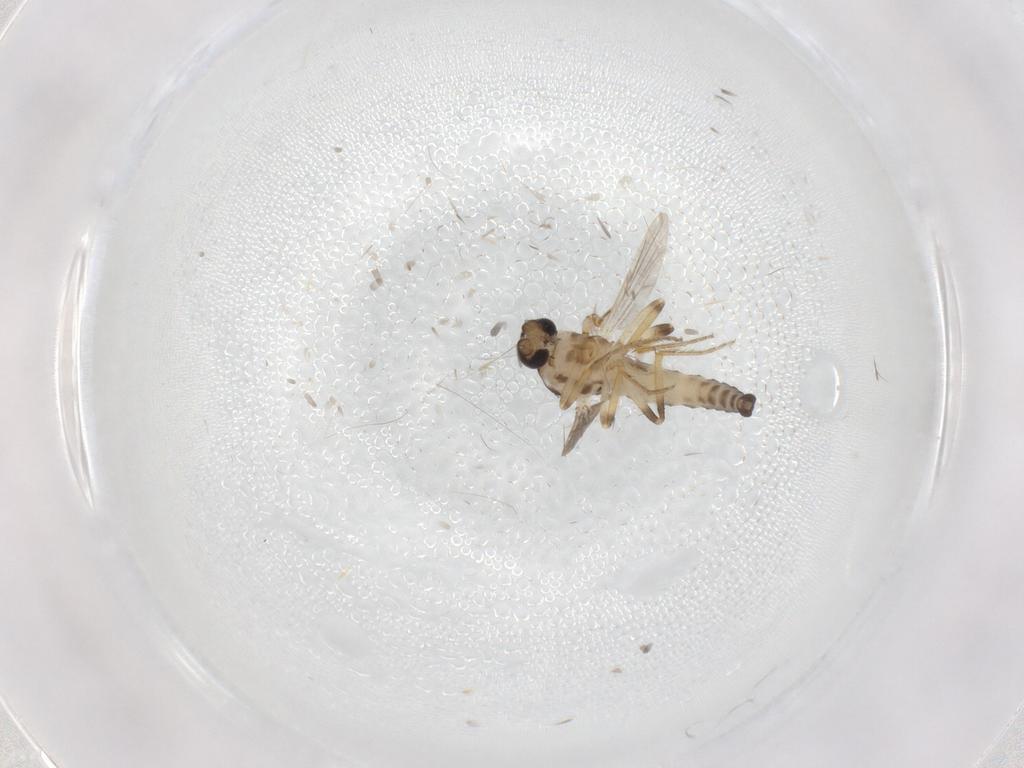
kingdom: Animalia
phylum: Arthropoda
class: Insecta
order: Diptera
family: Ceratopogonidae
